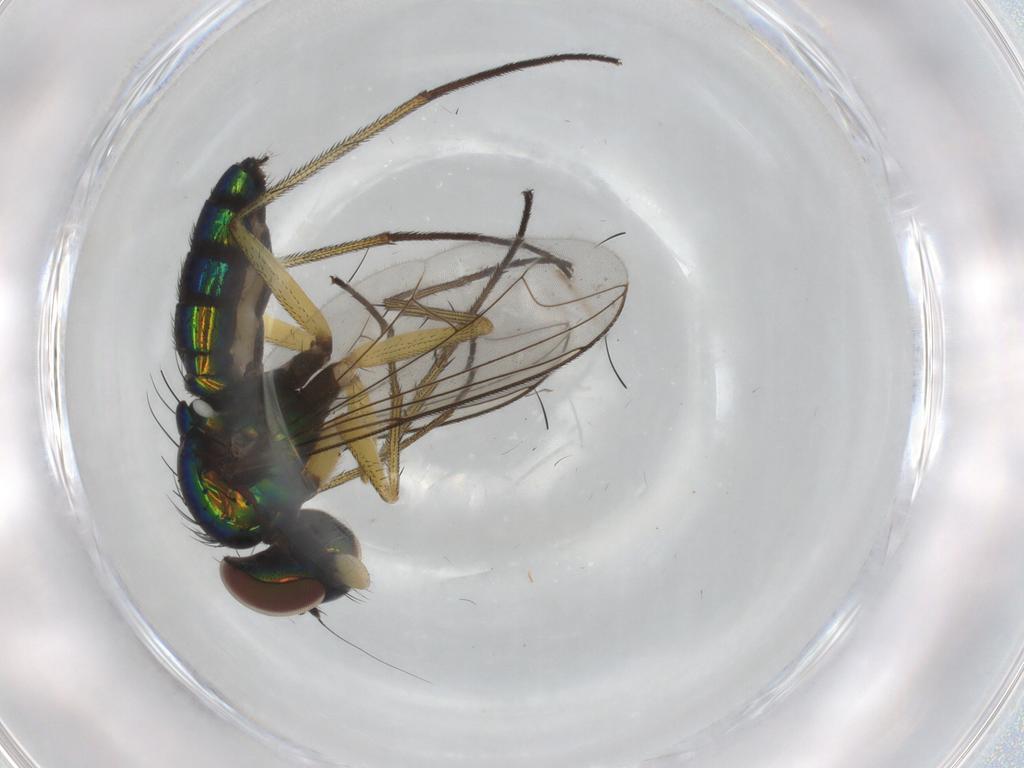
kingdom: Animalia
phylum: Arthropoda
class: Insecta
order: Diptera
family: Dolichopodidae
